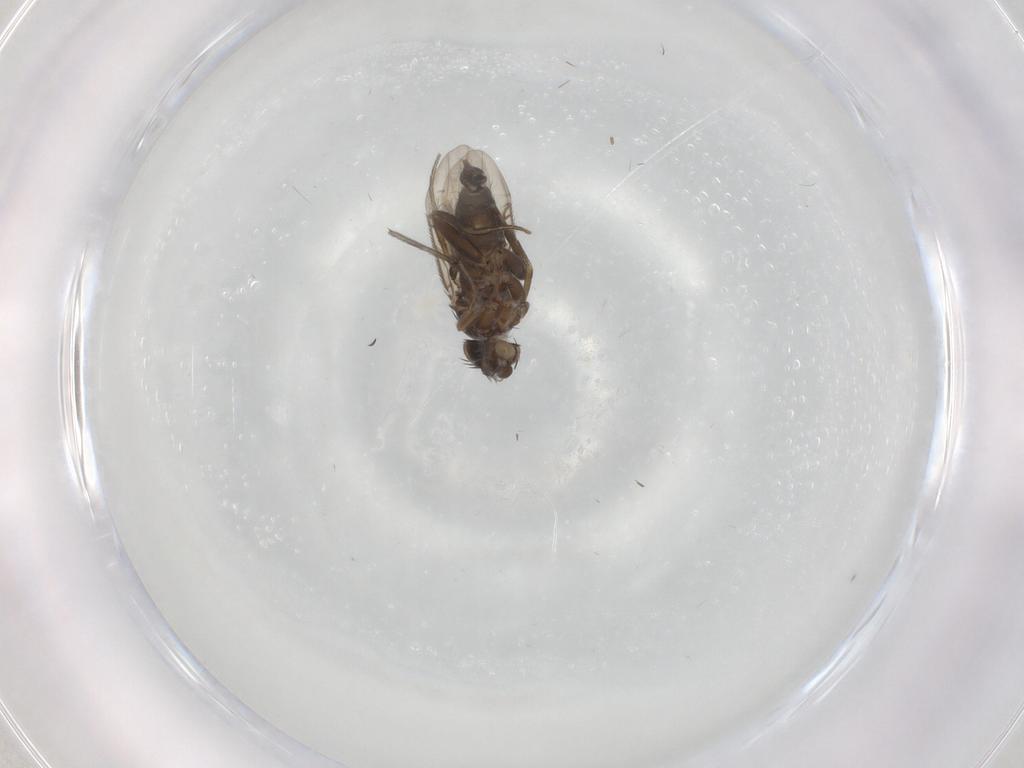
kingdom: Animalia
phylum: Arthropoda
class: Insecta
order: Diptera
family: Phoridae
